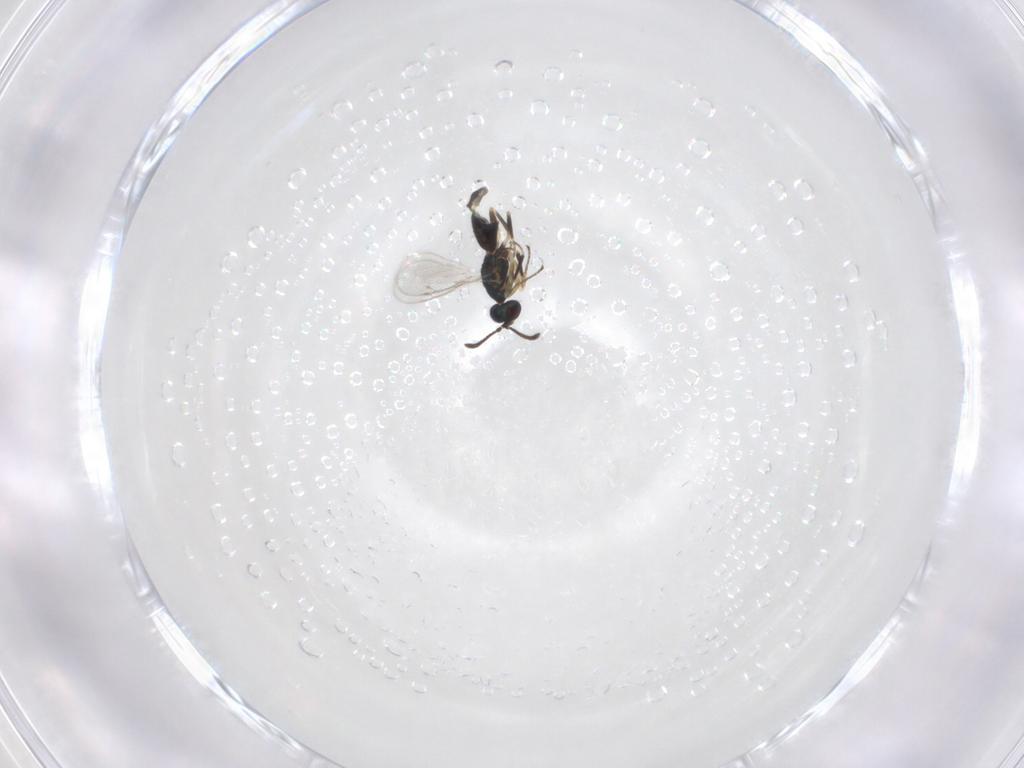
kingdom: Animalia
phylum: Arthropoda
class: Insecta
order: Hymenoptera
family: Eupelmidae
